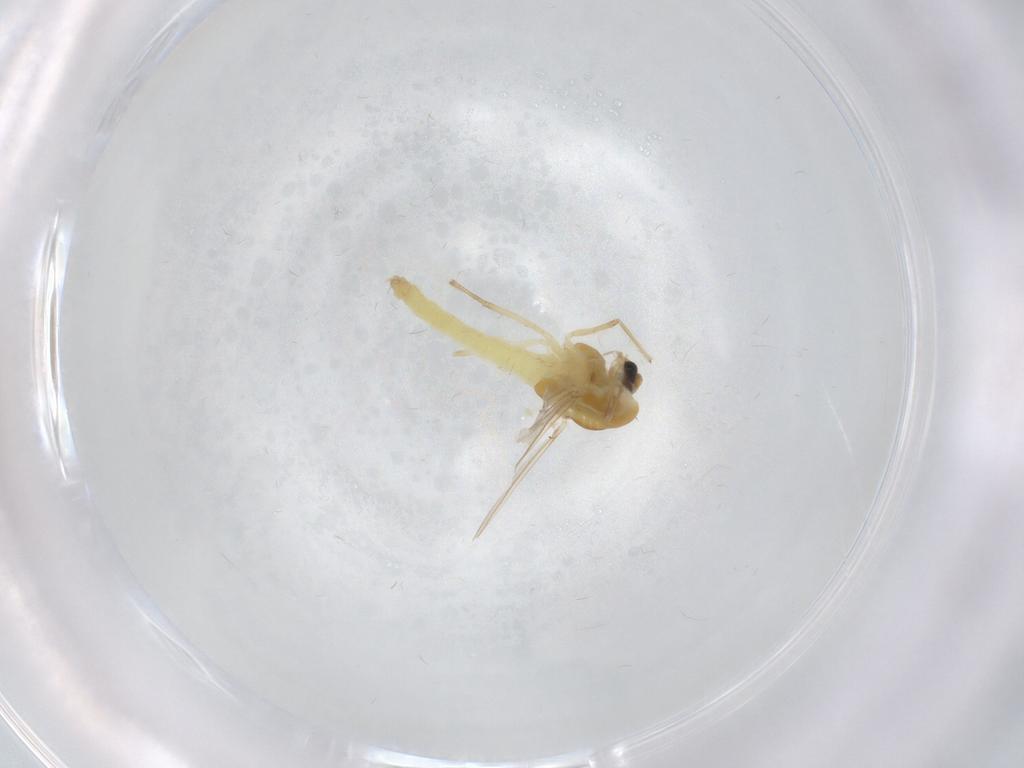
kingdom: Animalia
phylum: Arthropoda
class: Insecta
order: Diptera
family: Chironomidae
